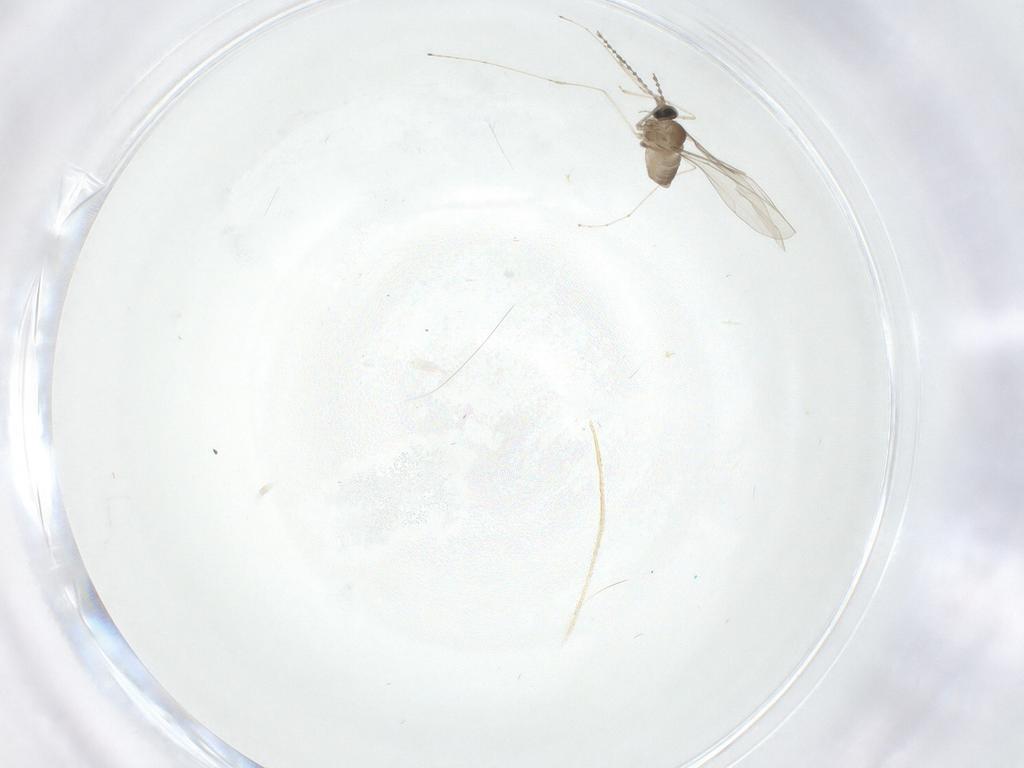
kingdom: Animalia
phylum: Arthropoda
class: Insecta
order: Diptera
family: Cecidomyiidae
